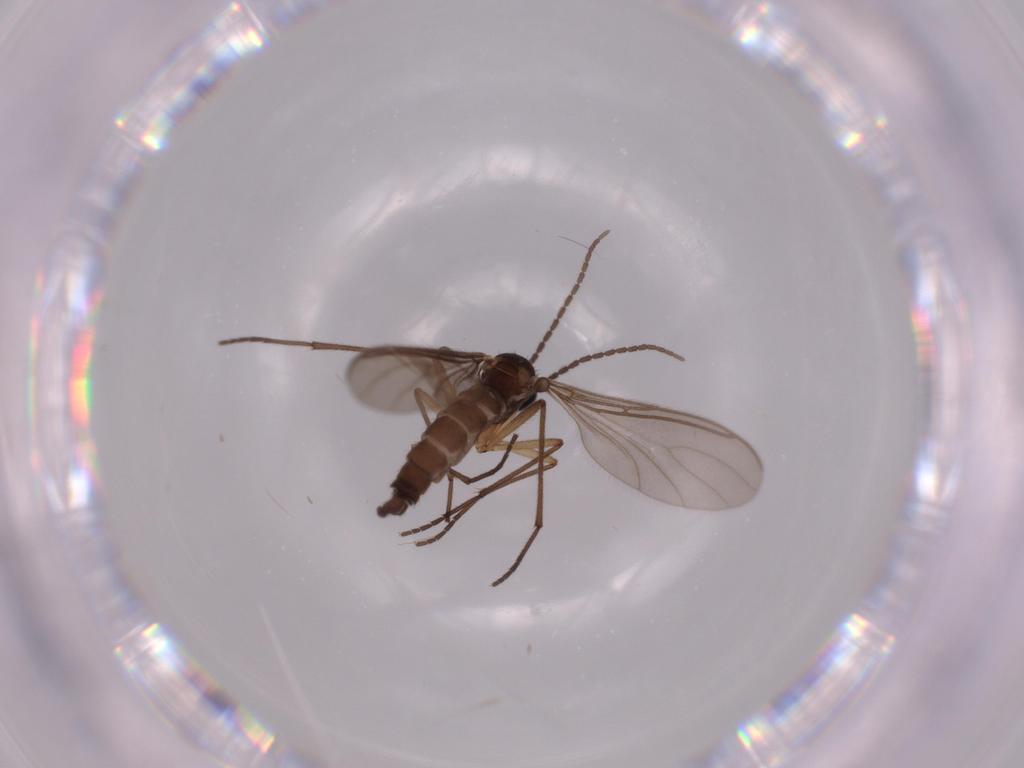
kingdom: Animalia
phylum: Arthropoda
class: Insecta
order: Diptera
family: Sciaridae
